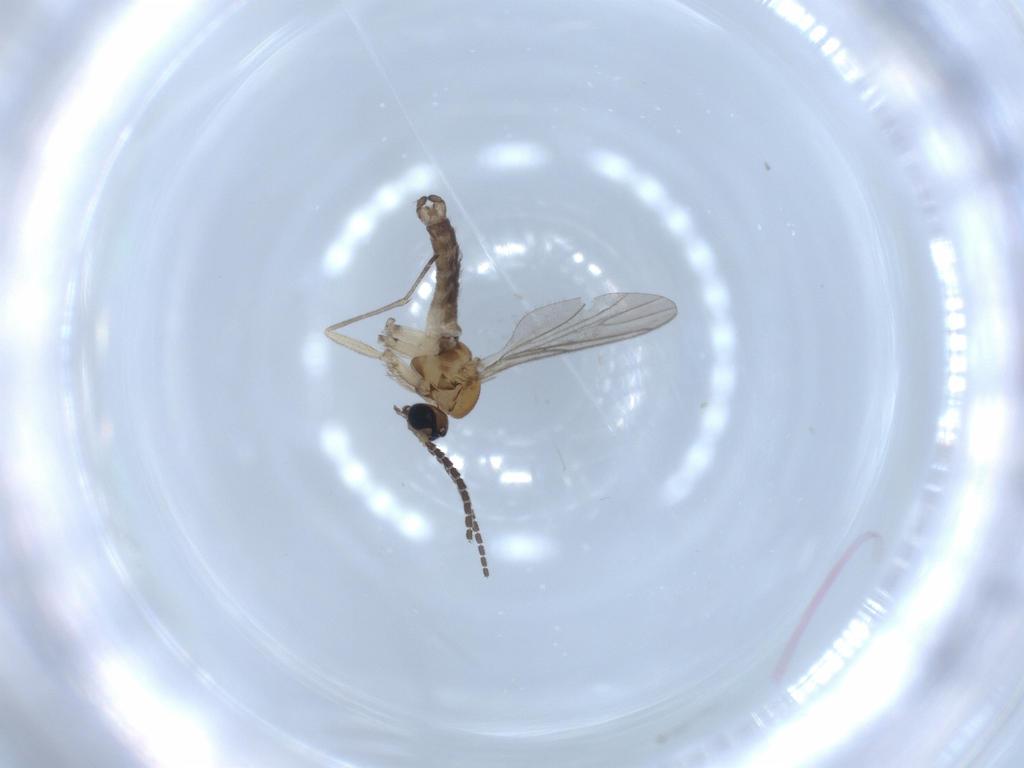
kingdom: Animalia
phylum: Arthropoda
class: Insecta
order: Diptera
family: Sciaridae
